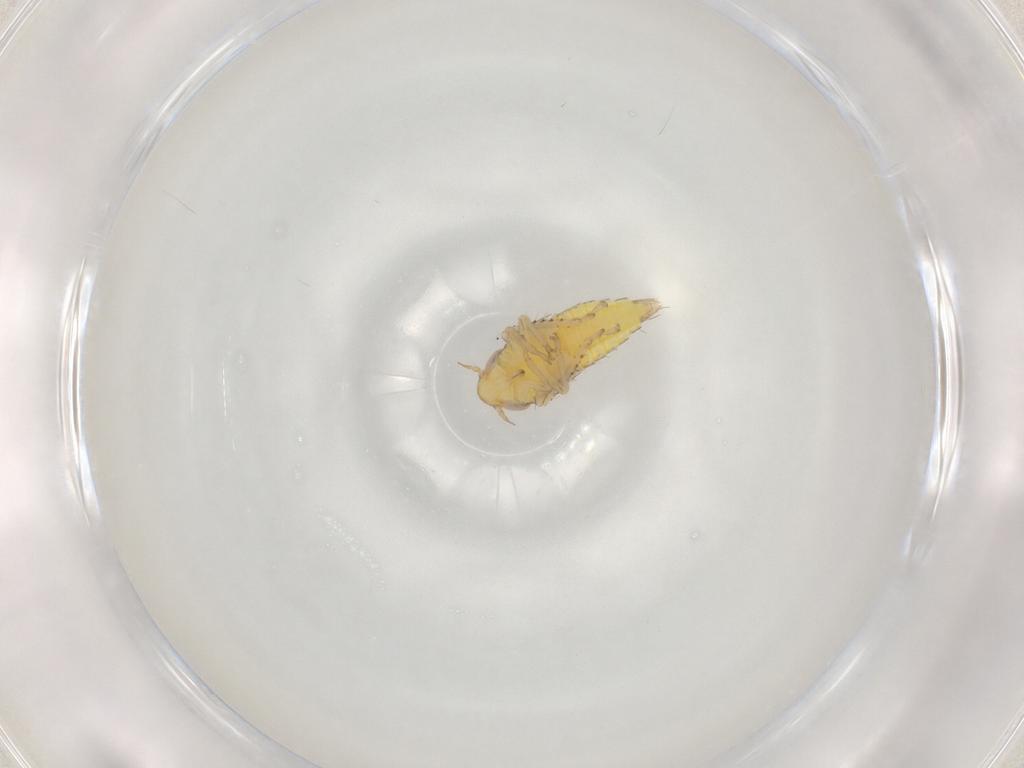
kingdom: Animalia
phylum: Arthropoda
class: Insecta
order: Hemiptera
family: Cicadellidae
